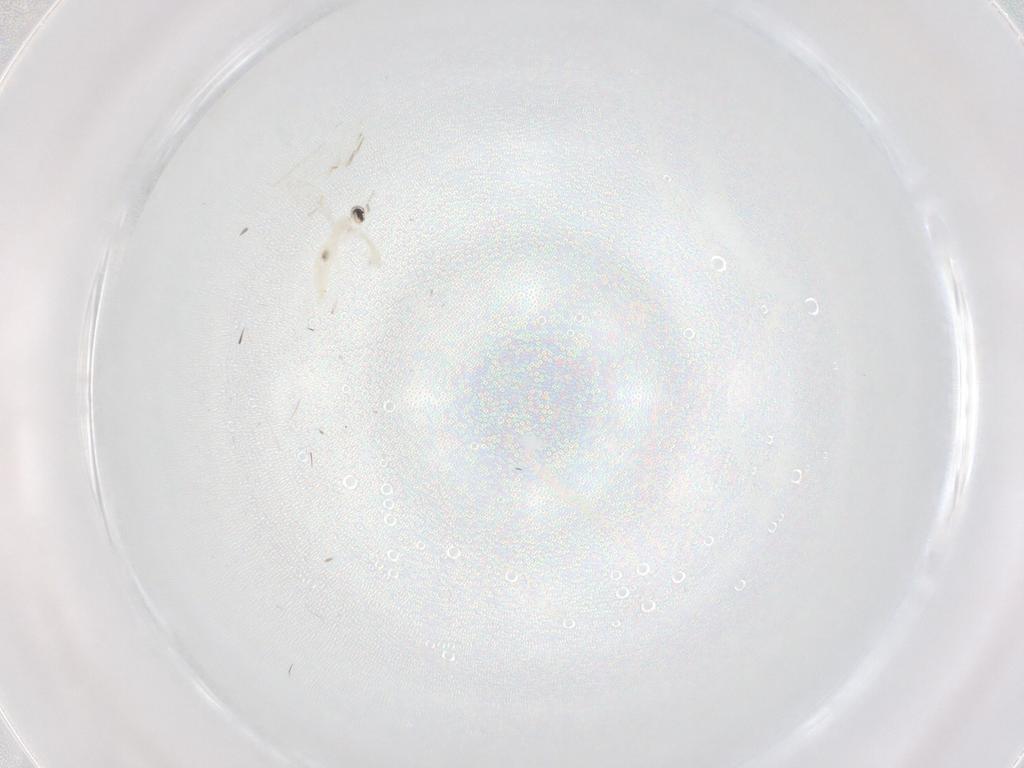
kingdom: Animalia
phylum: Arthropoda
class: Insecta
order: Diptera
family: Cecidomyiidae
